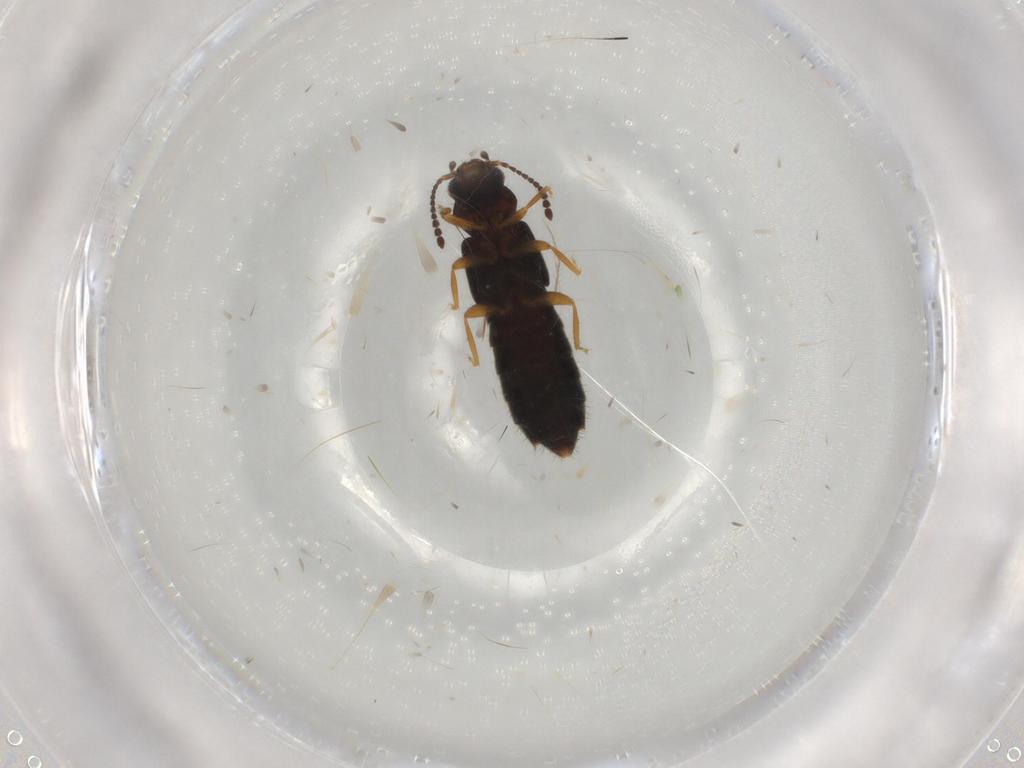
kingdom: Animalia
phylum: Arthropoda
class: Insecta
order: Coleoptera
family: Staphylinidae
